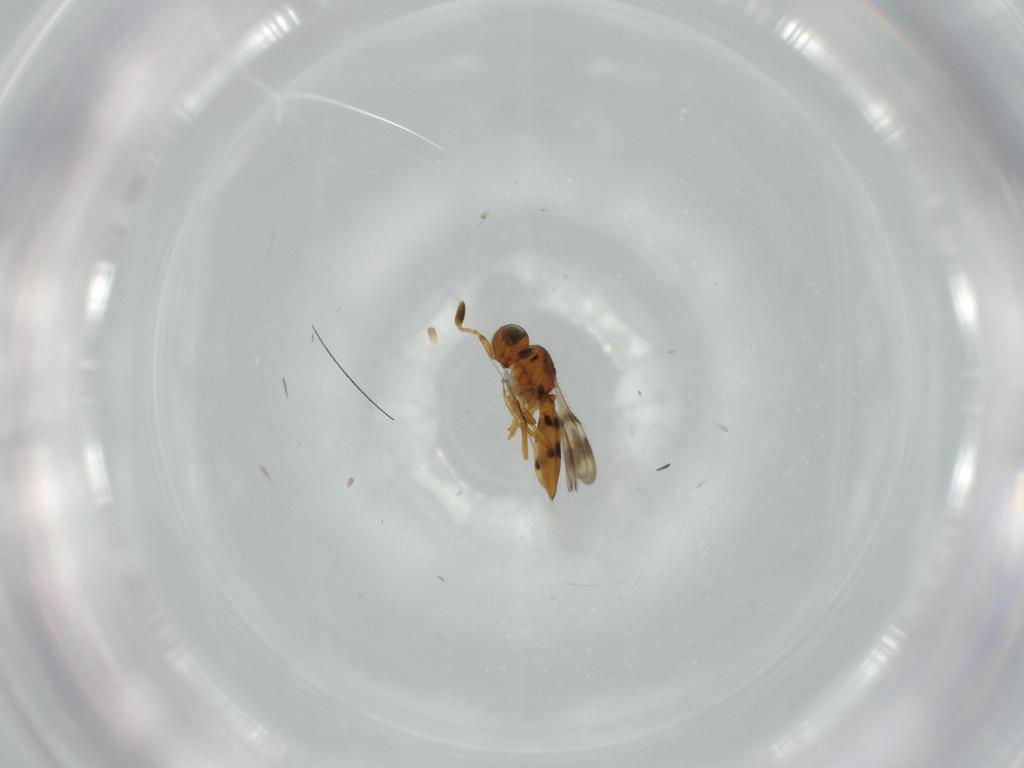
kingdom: Animalia
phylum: Arthropoda
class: Insecta
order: Hymenoptera
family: Scelionidae
